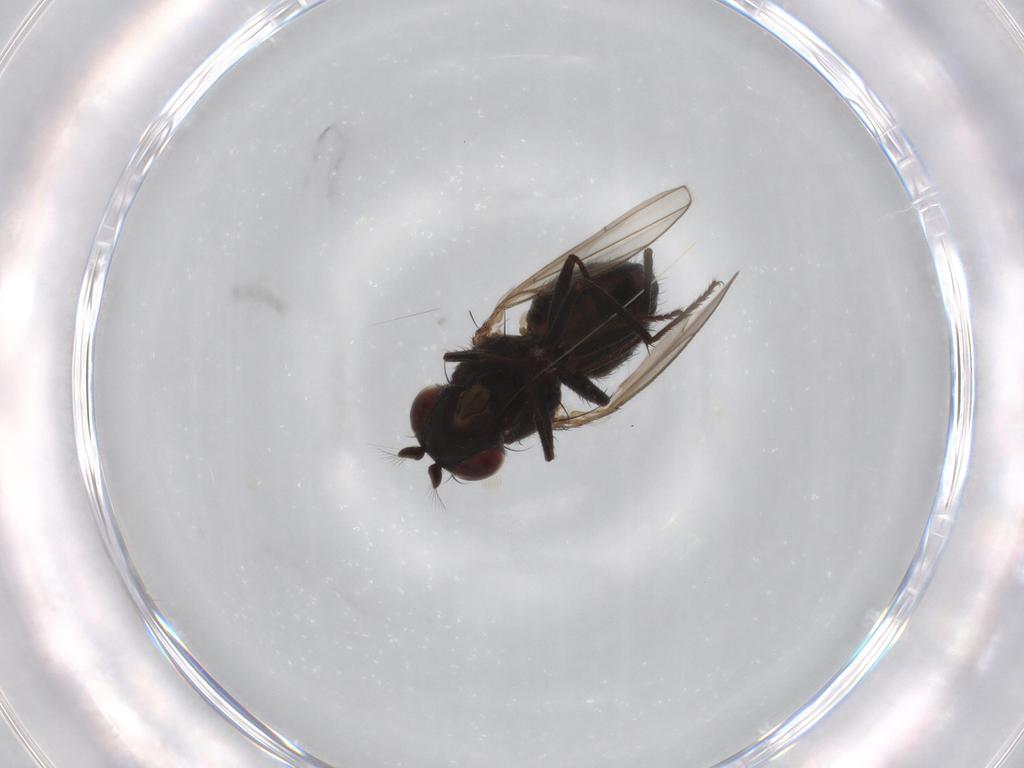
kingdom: Animalia
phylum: Arthropoda
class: Insecta
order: Diptera
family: Ephydridae
